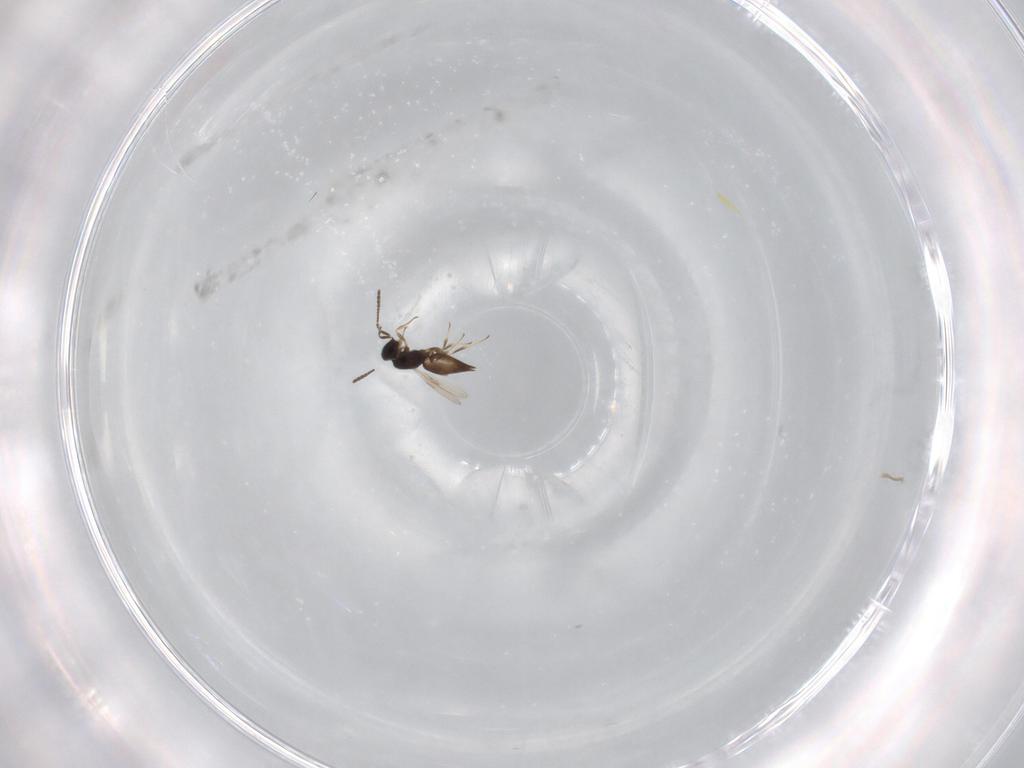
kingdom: Animalia
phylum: Arthropoda
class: Insecta
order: Hymenoptera
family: Scelionidae
